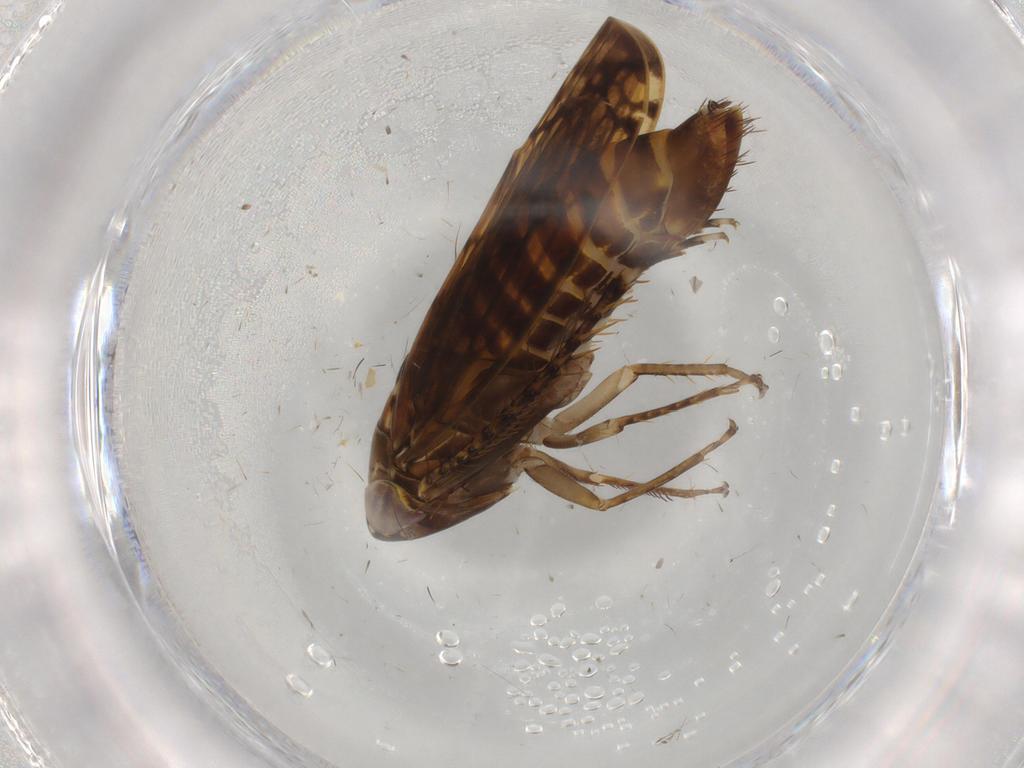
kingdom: Animalia
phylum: Arthropoda
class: Insecta
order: Hemiptera
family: Cicadellidae
